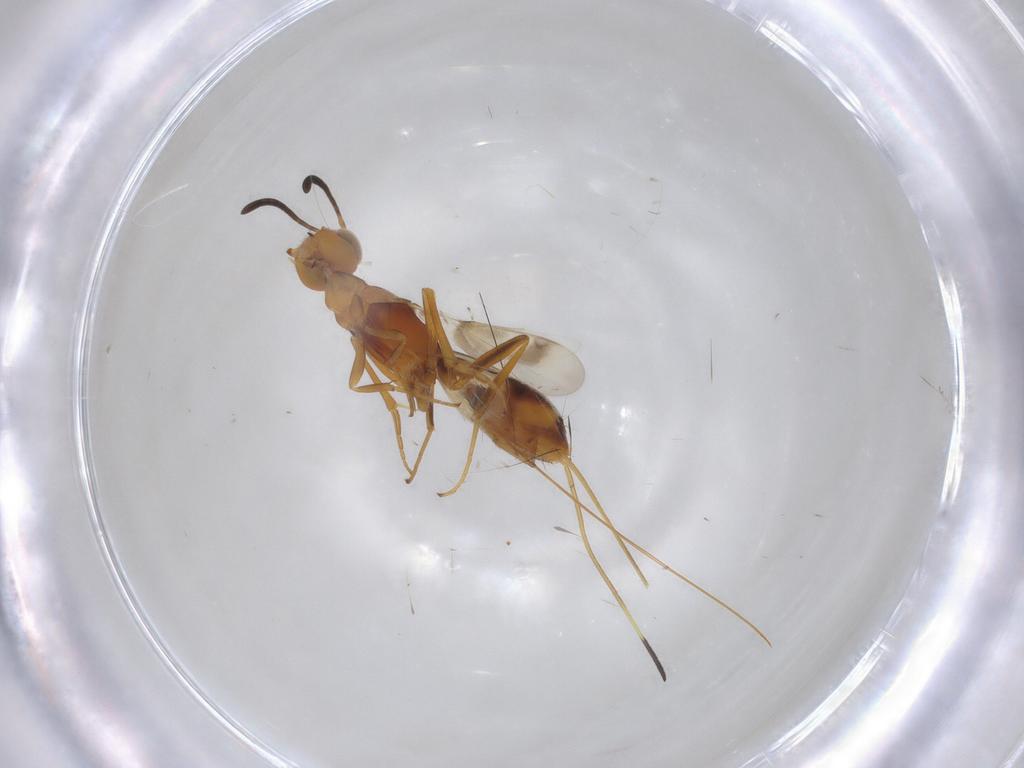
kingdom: Animalia
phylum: Arthropoda
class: Insecta
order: Hymenoptera
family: Eupelmidae
